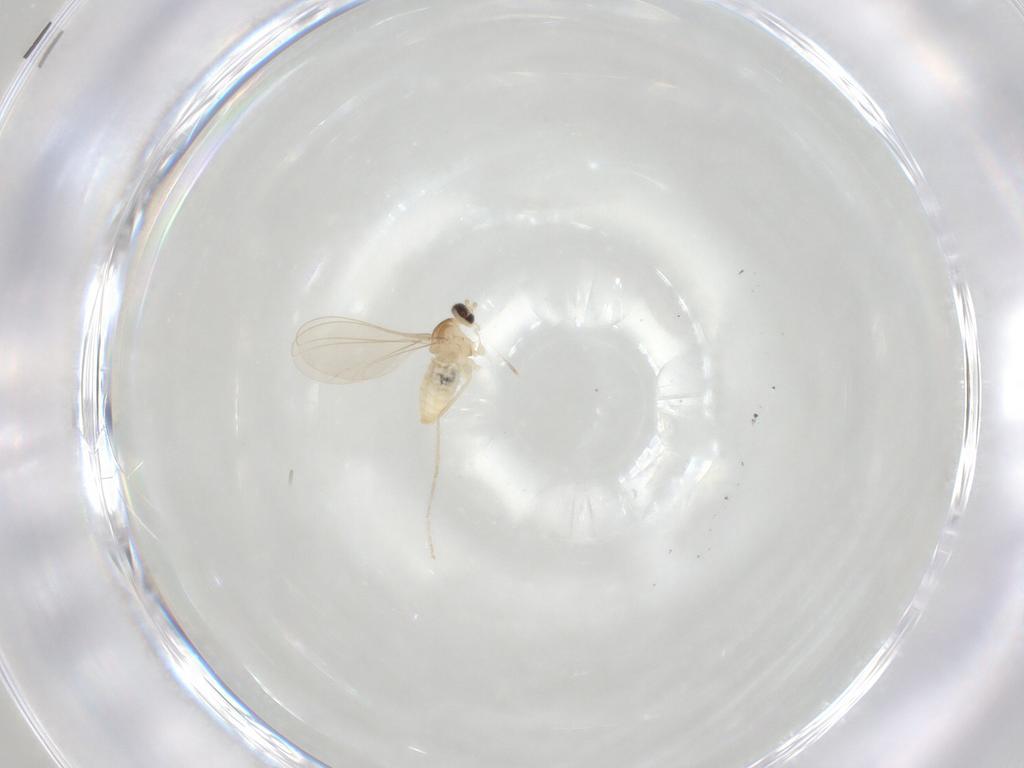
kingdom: Animalia
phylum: Arthropoda
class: Insecta
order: Diptera
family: Cecidomyiidae
